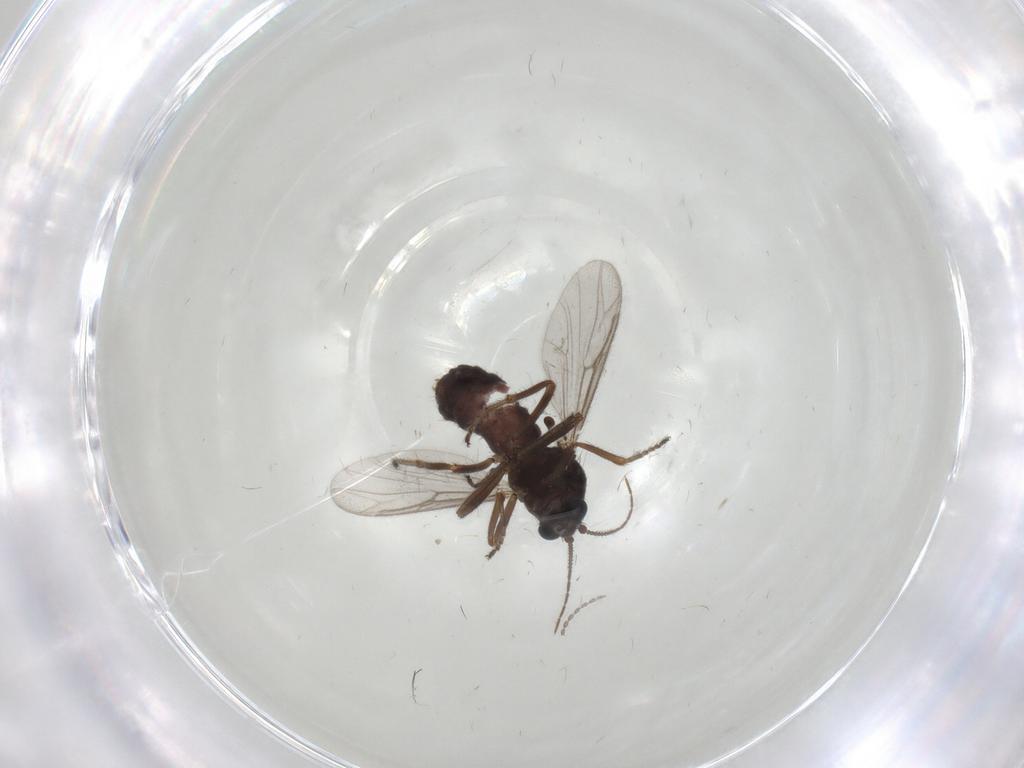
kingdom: Animalia
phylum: Arthropoda
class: Insecta
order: Diptera
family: Ceratopogonidae
